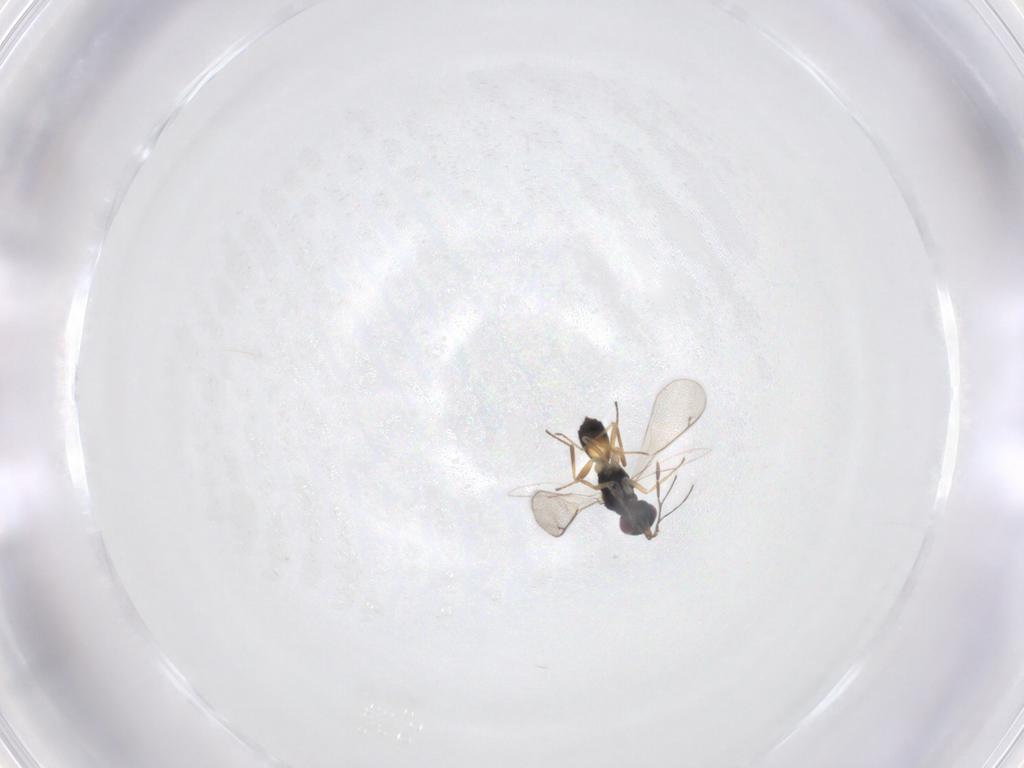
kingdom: Animalia
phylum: Arthropoda
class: Insecta
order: Hymenoptera
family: Eulophidae
